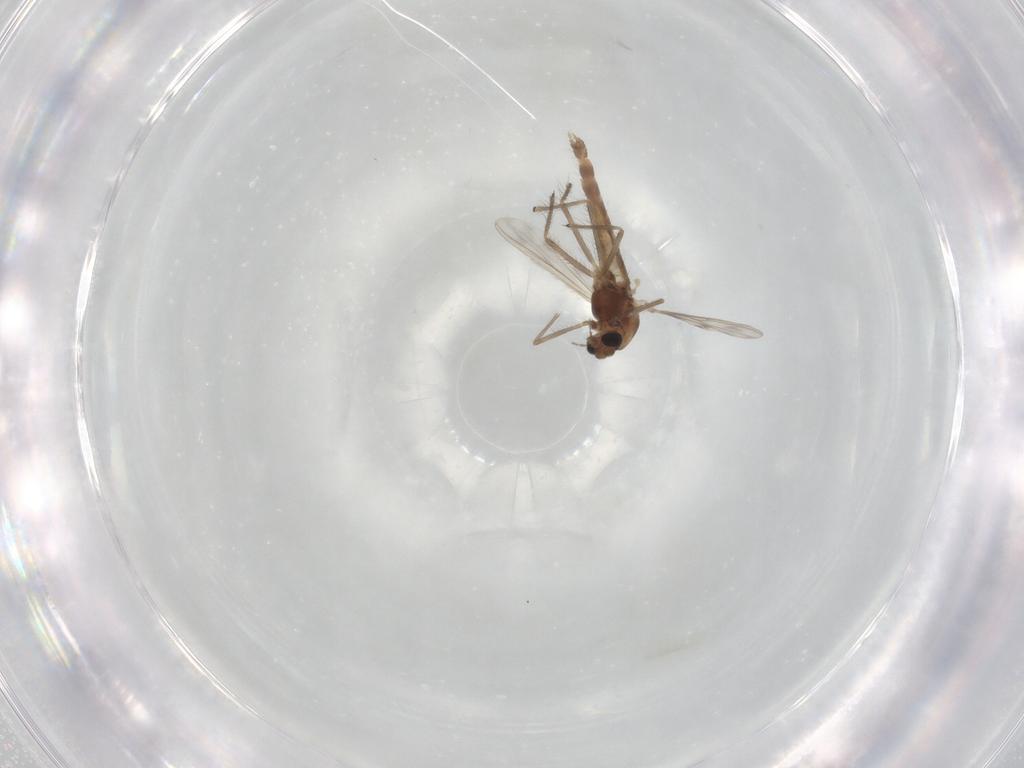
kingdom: Animalia
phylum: Arthropoda
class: Insecta
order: Diptera
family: Chironomidae
